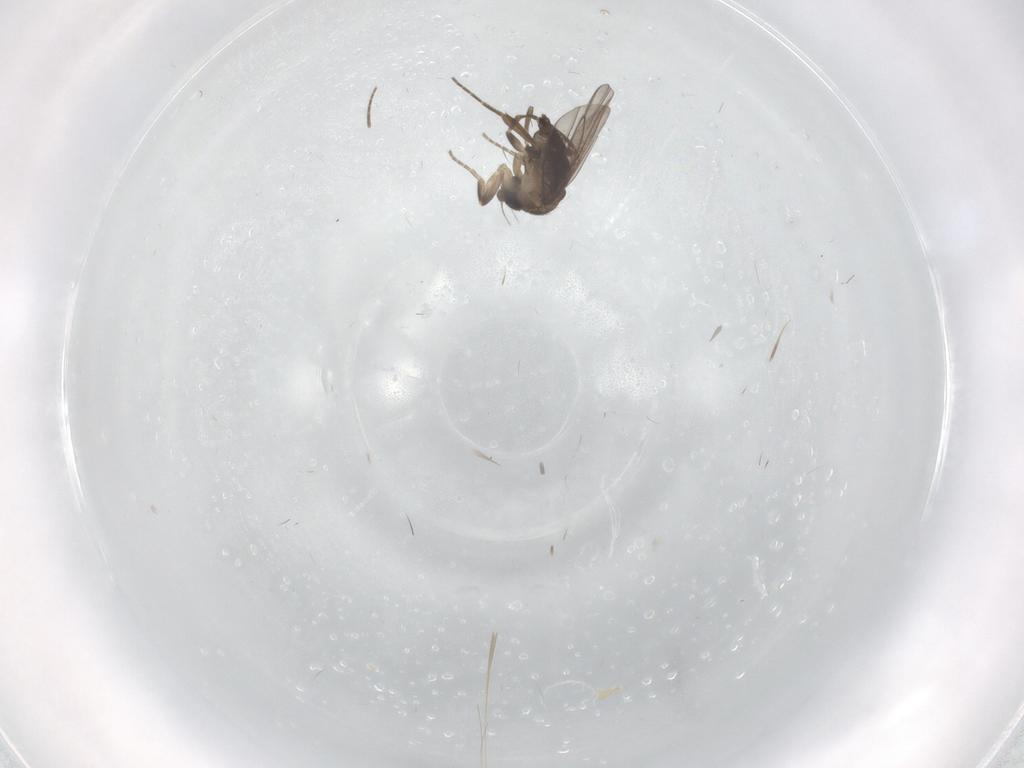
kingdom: Animalia
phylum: Arthropoda
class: Insecta
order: Diptera
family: Cecidomyiidae
